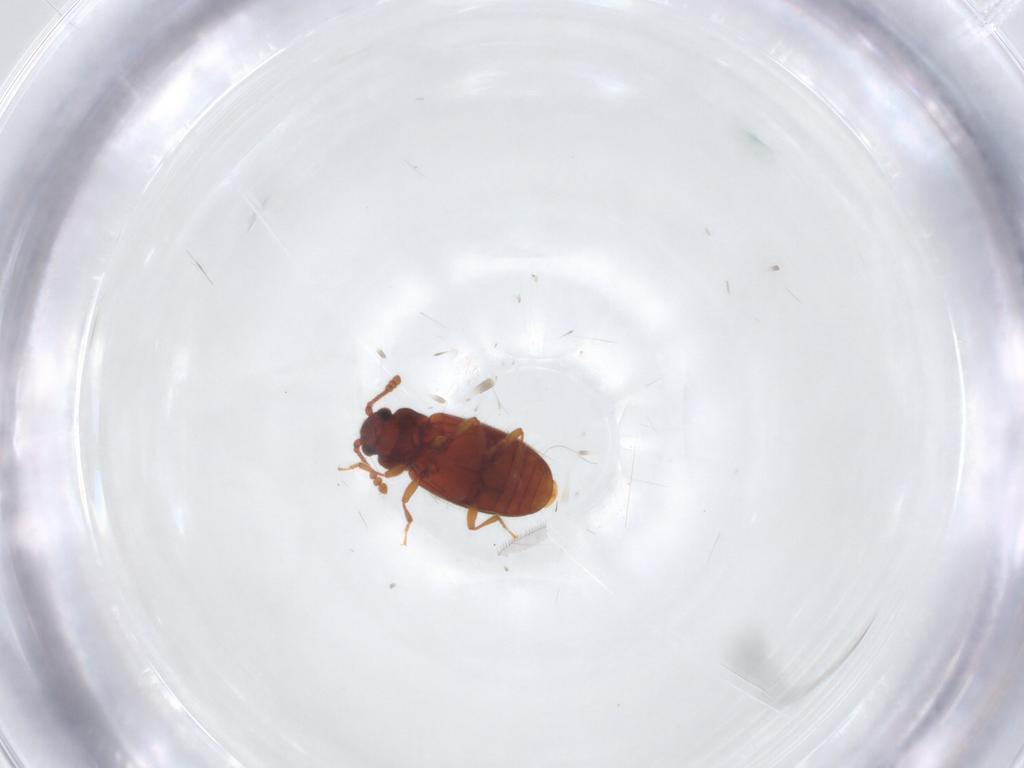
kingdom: Animalia
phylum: Arthropoda
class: Insecta
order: Coleoptera
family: Cryptophagidae
